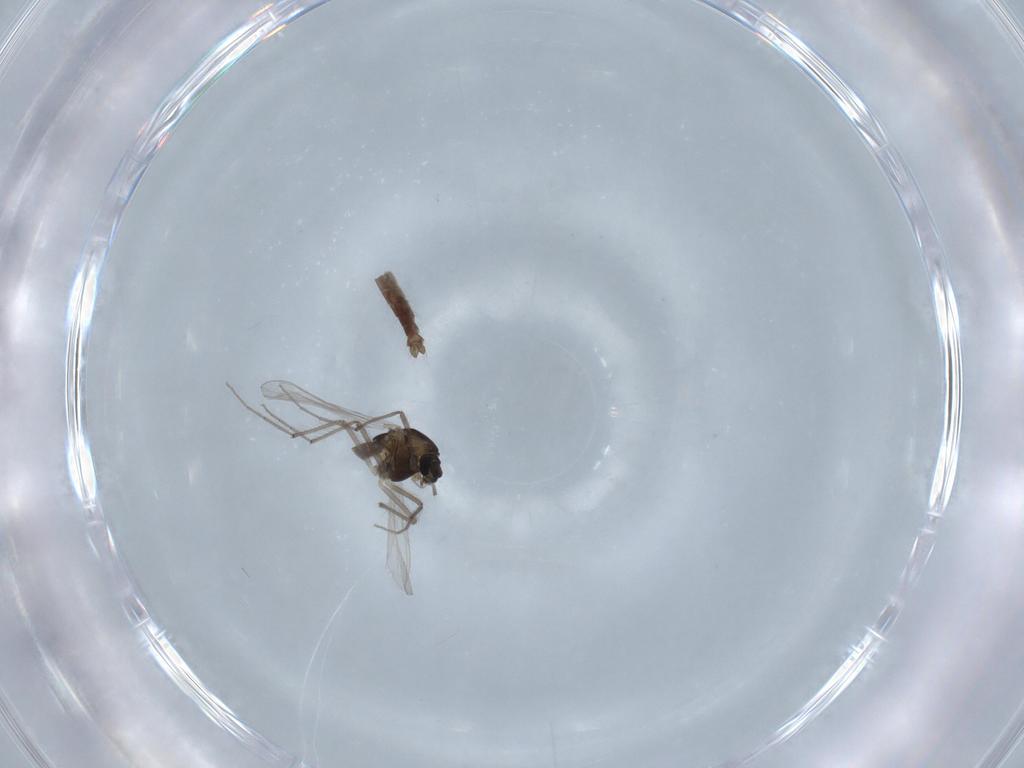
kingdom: Animalia
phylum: Arthropoda
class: Insecta
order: Diptera
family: Chironomidae
